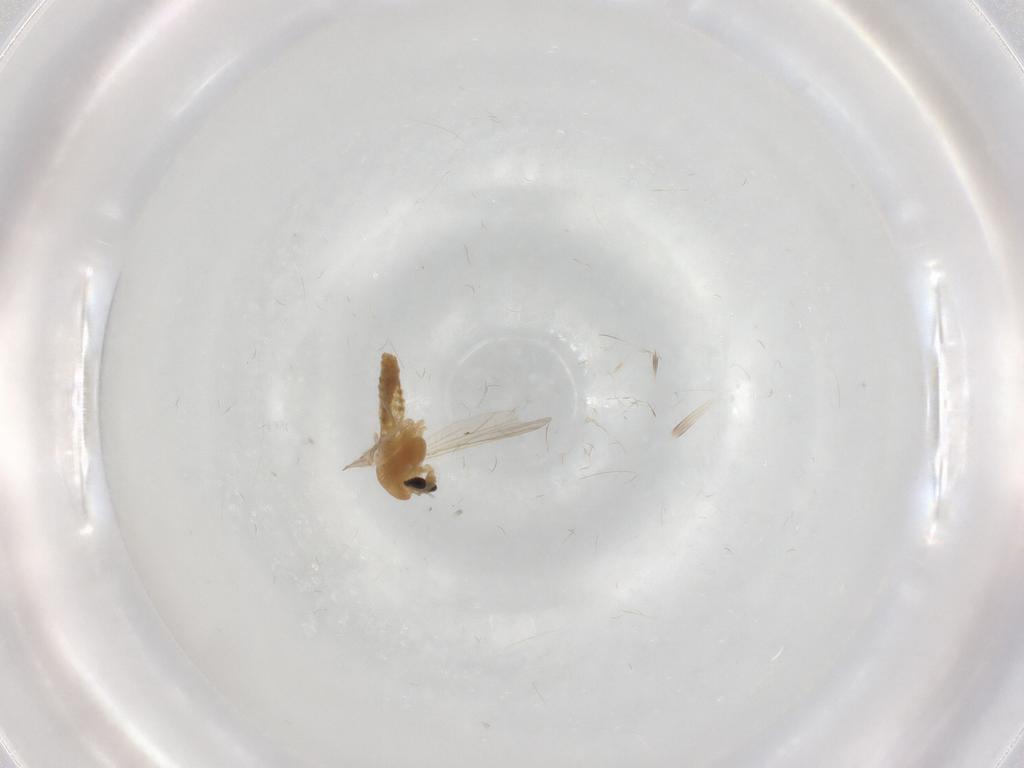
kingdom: Animalia
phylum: Arthropoda
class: Insecta
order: Diptera
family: Chironomidae
